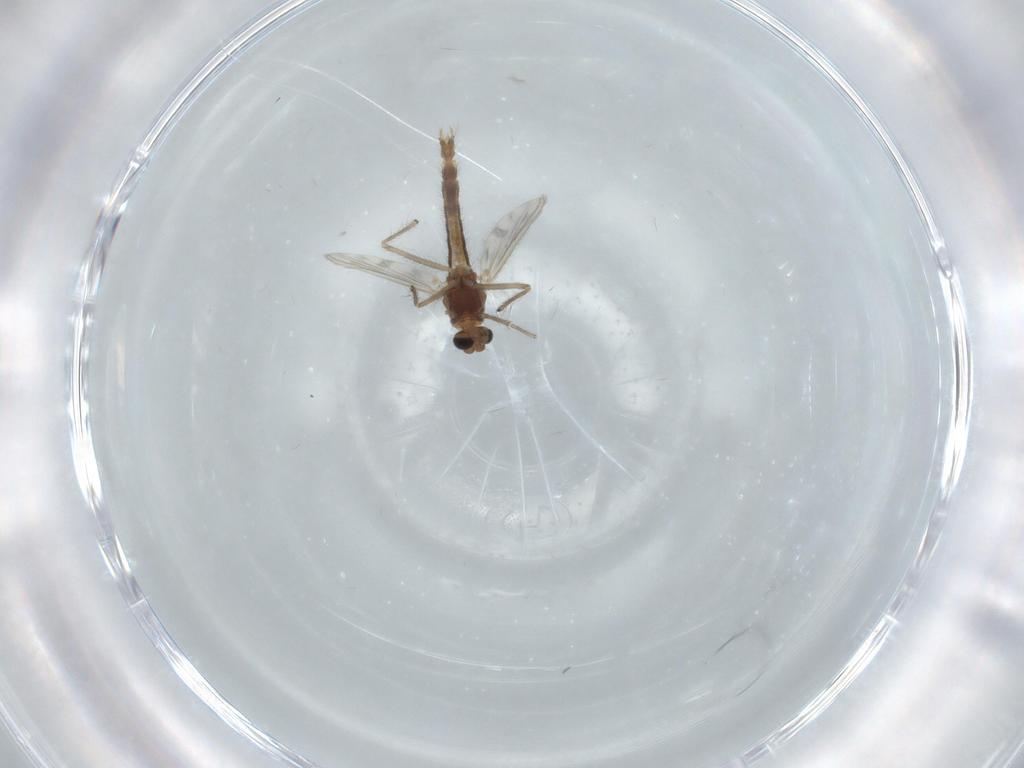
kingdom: Animalia
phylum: Arthropoda
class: Insecta
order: Diptera
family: Chironomidae
